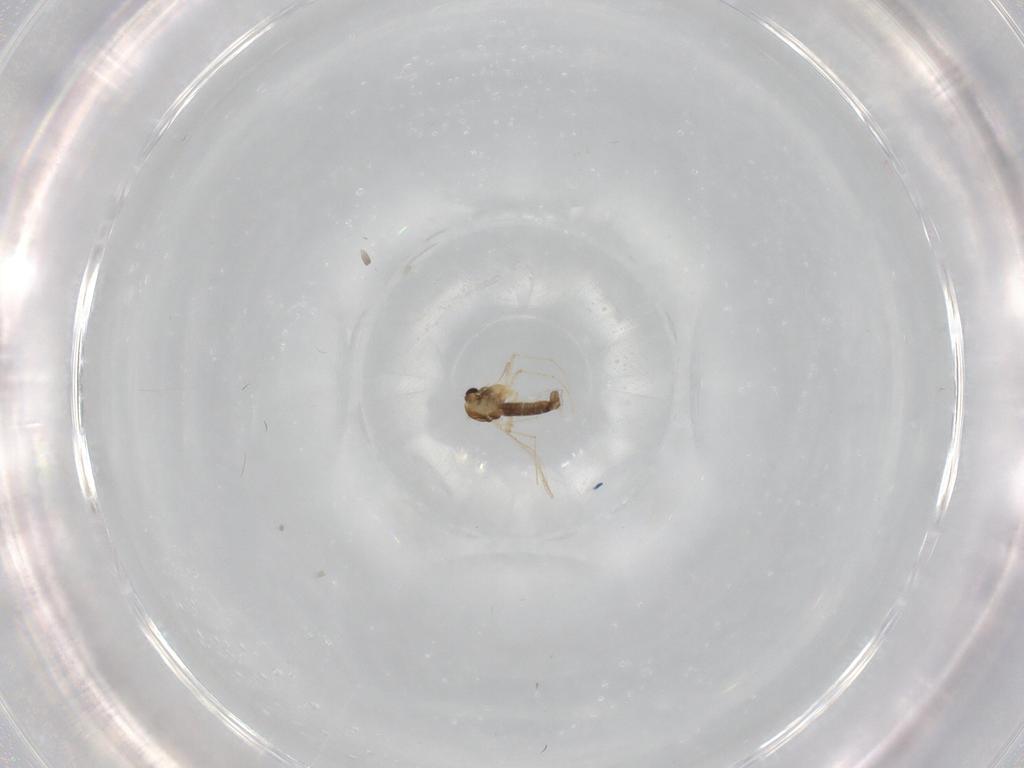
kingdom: Animalia
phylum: Arthropoda
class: Insecta
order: Diptera
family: Chironomidae
